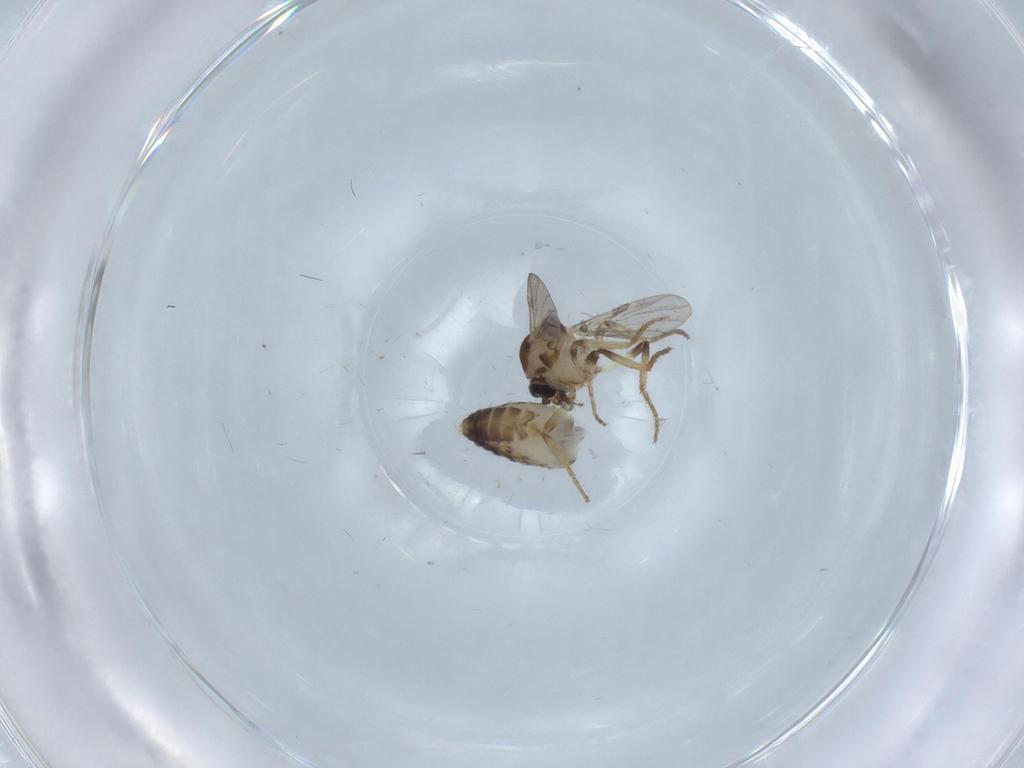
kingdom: Animalia
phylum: Arthropoda
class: Insecta
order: Diptera
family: Ceratopogonidae
